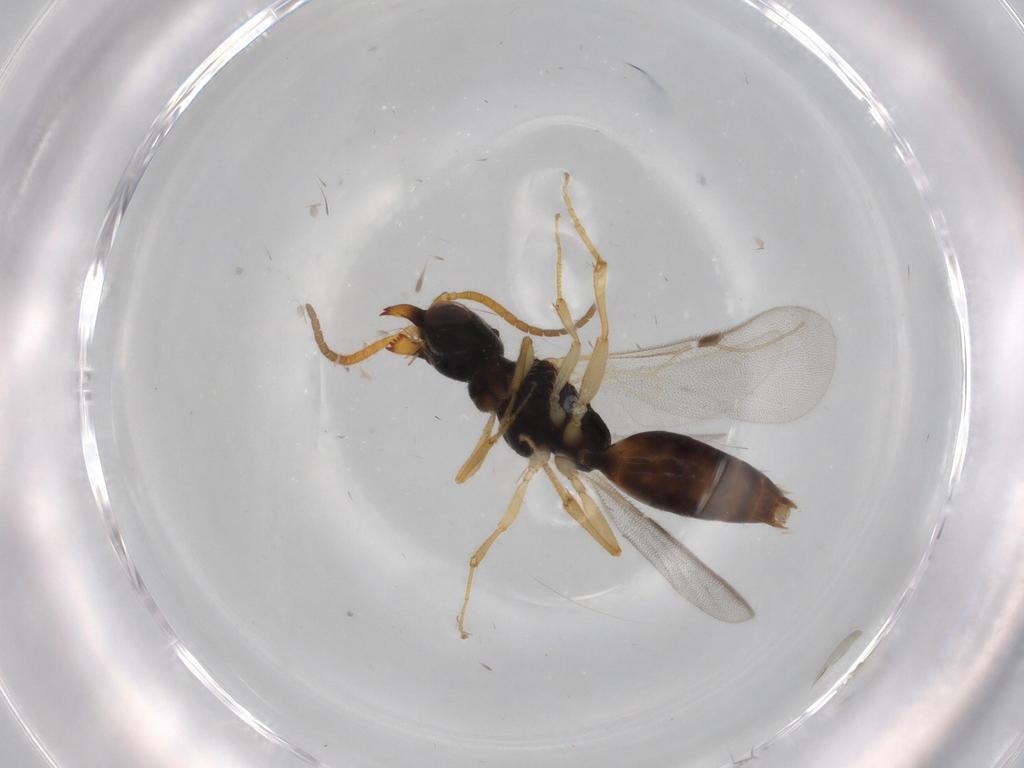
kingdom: Animalia
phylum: Arthropoda
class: Insecta
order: Hymenoptera
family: Bethylidae
